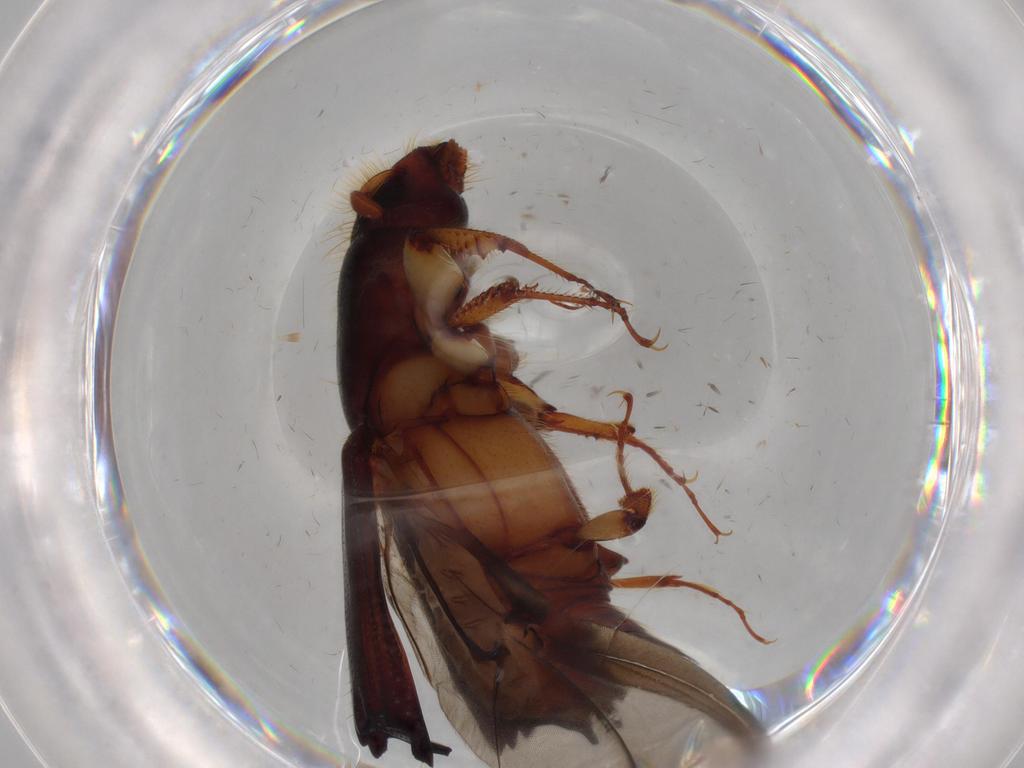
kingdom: Animalia
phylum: Arthropoda
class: Insecta
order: Coleoptera
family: Curculionidae
